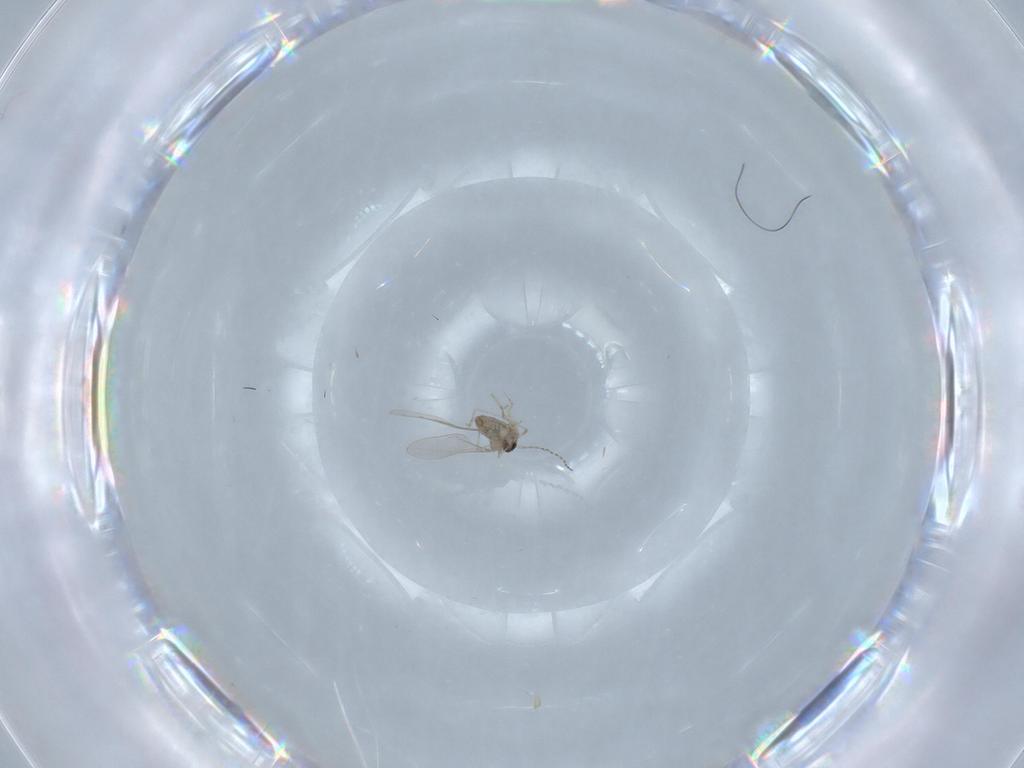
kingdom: Animalia
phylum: Arthropoda
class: Insecta
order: Diptera
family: Cecidomyiidae
